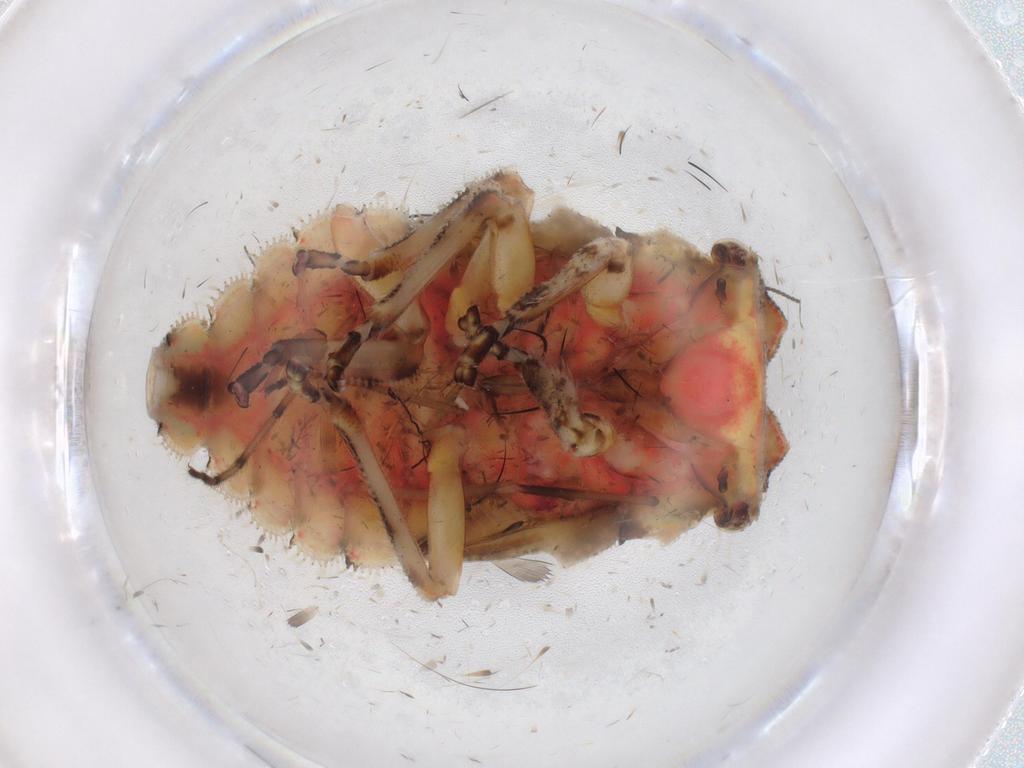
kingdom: Animalia
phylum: Arthropoda
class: Insecta
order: Hemiptera
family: Membracidae
